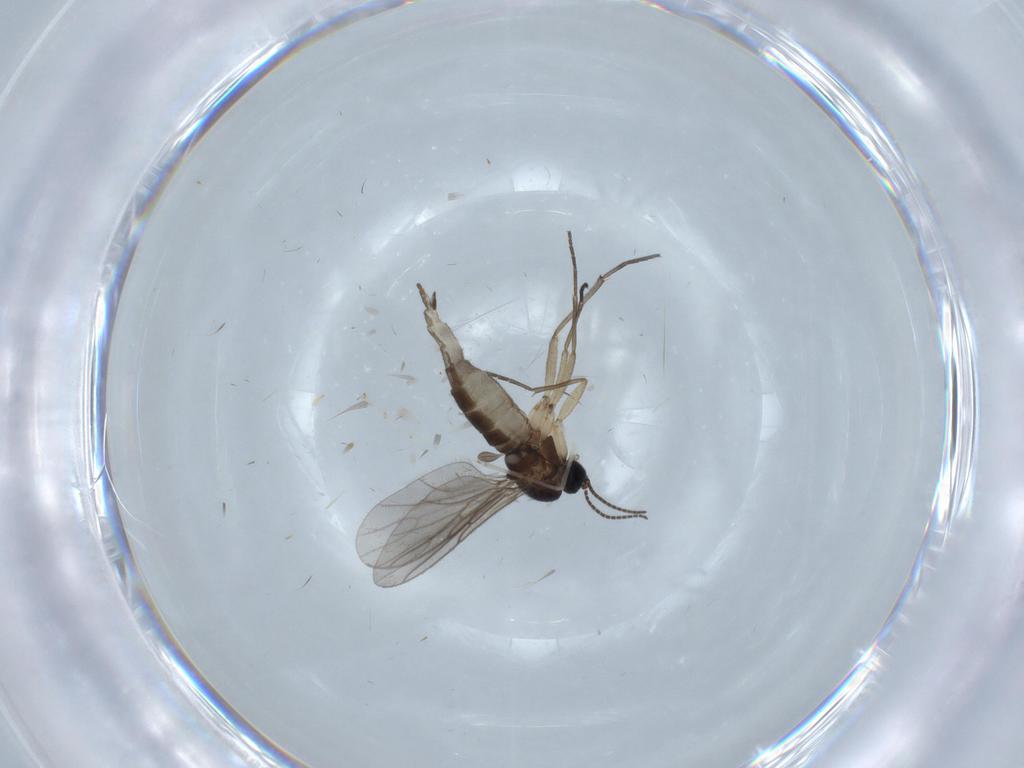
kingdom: Animalia
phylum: Arthropoda
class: Insecta
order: Diptera
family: Sciaridae
